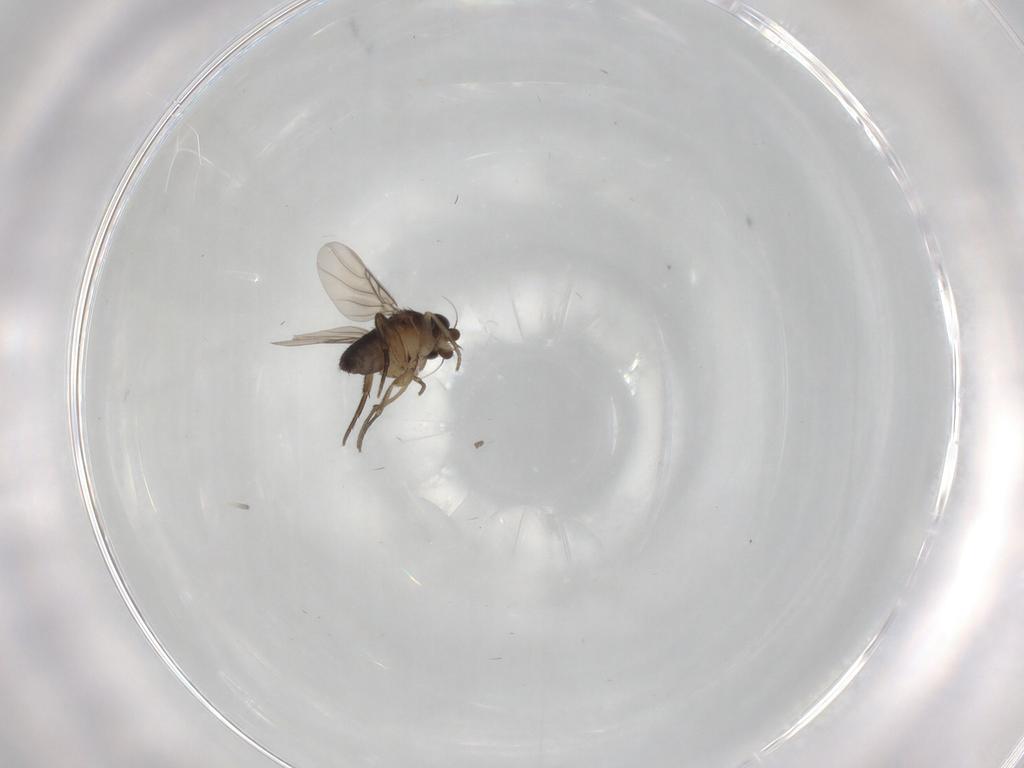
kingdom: Animalia
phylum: Arthropoda
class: Insecta
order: Diptera
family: Phoridae
